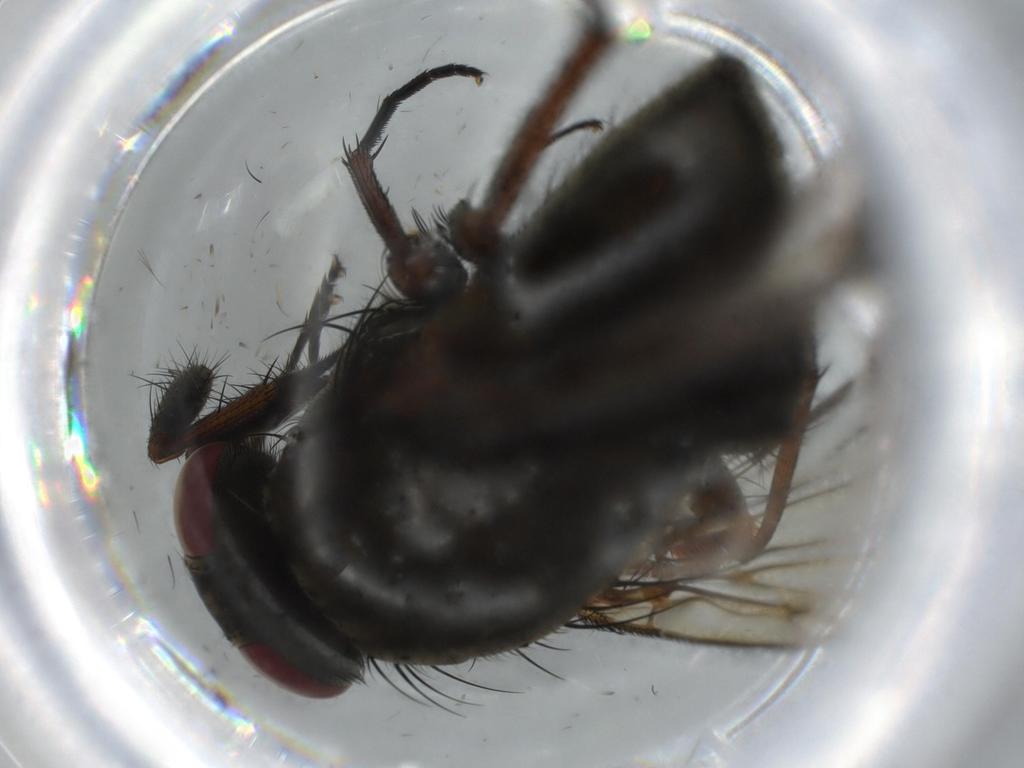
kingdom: Animalia
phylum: Arthropoda
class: Insecta
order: Diptera
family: Muscidae
